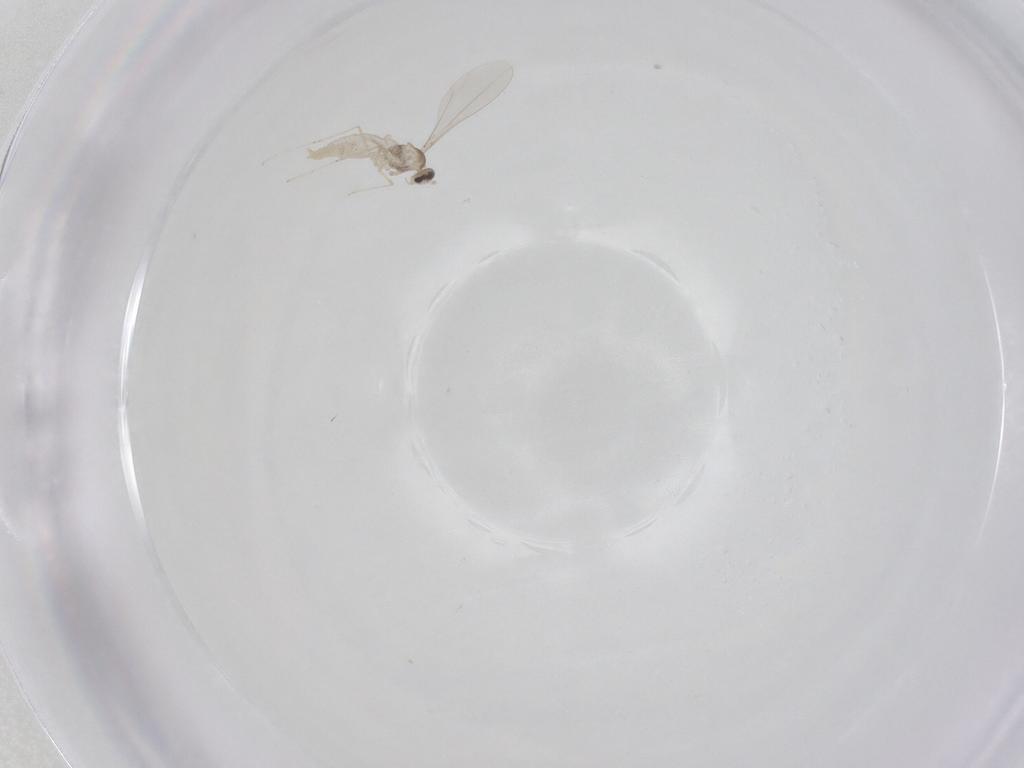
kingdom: Animalia
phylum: Arthropoda
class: Insecta
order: Diptera
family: Cecidomyiidae
